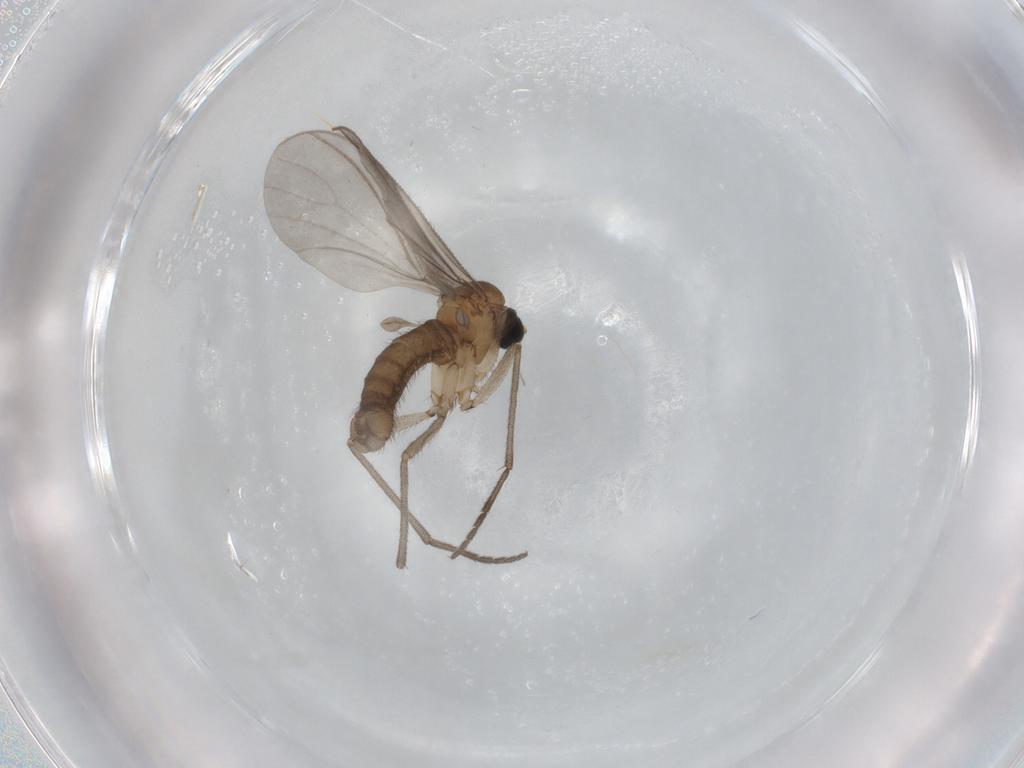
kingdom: Animalia
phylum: Arthropoda
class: Insecta
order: Diptera
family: Sciaridae
